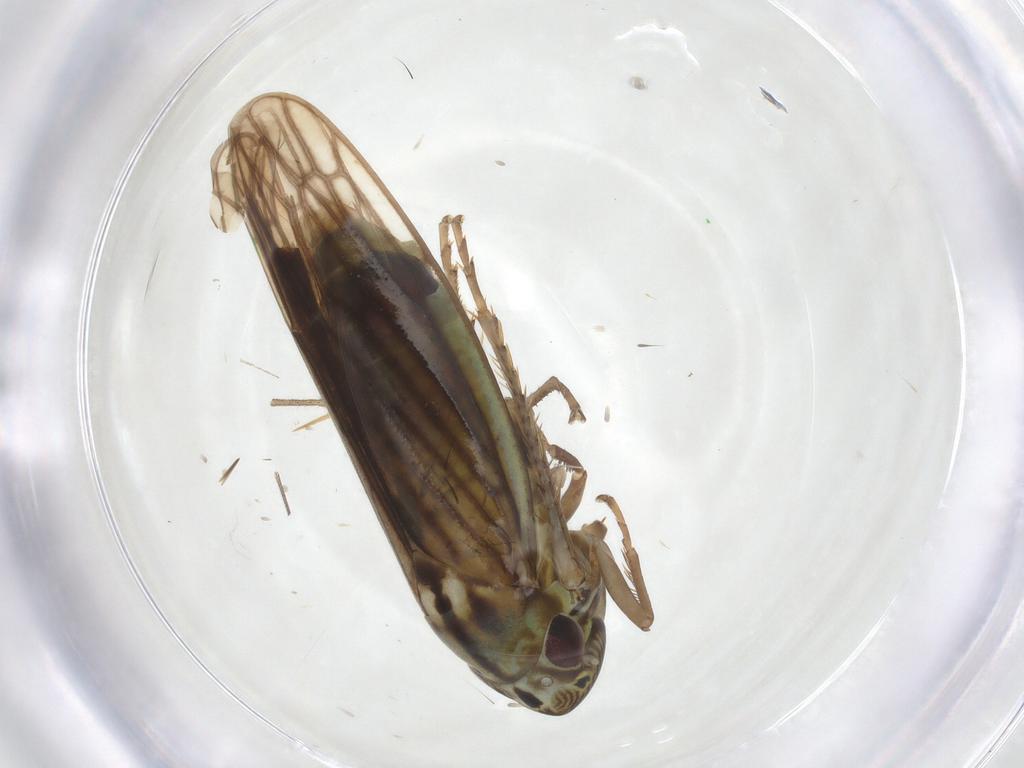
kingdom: Animalia
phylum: Arthropoda
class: Insecta
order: Hemiptera
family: Cicadellidae
